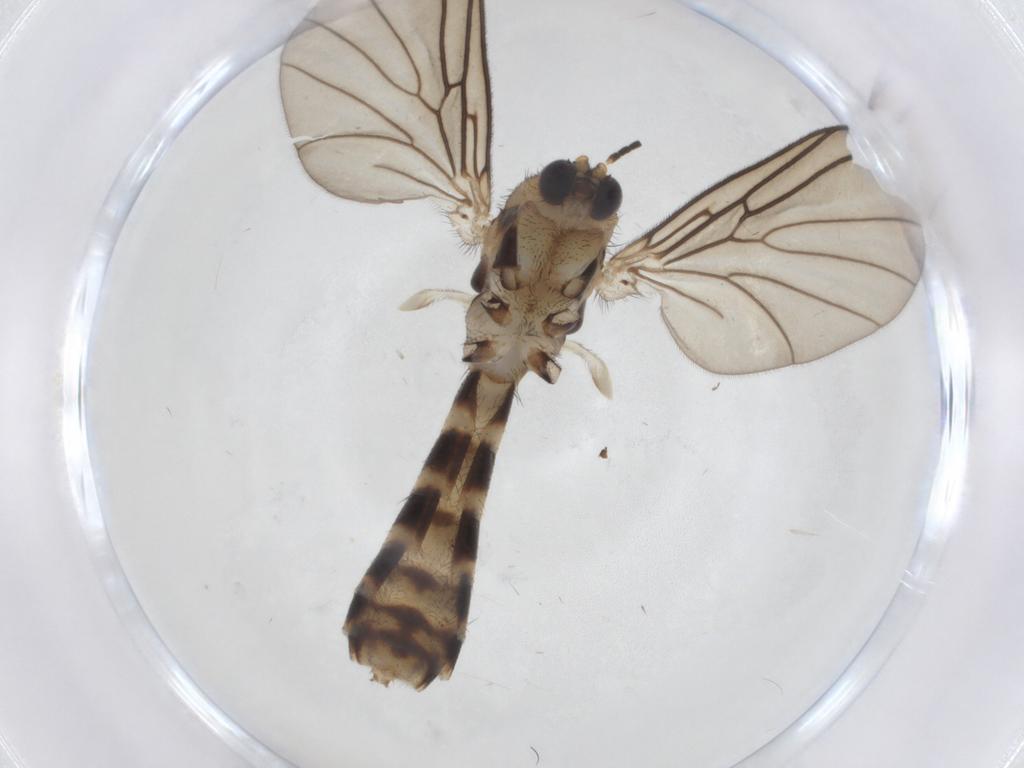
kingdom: Animalia
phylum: Arthropoda
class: Insecta
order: Diptera
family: Mycetophilidae
